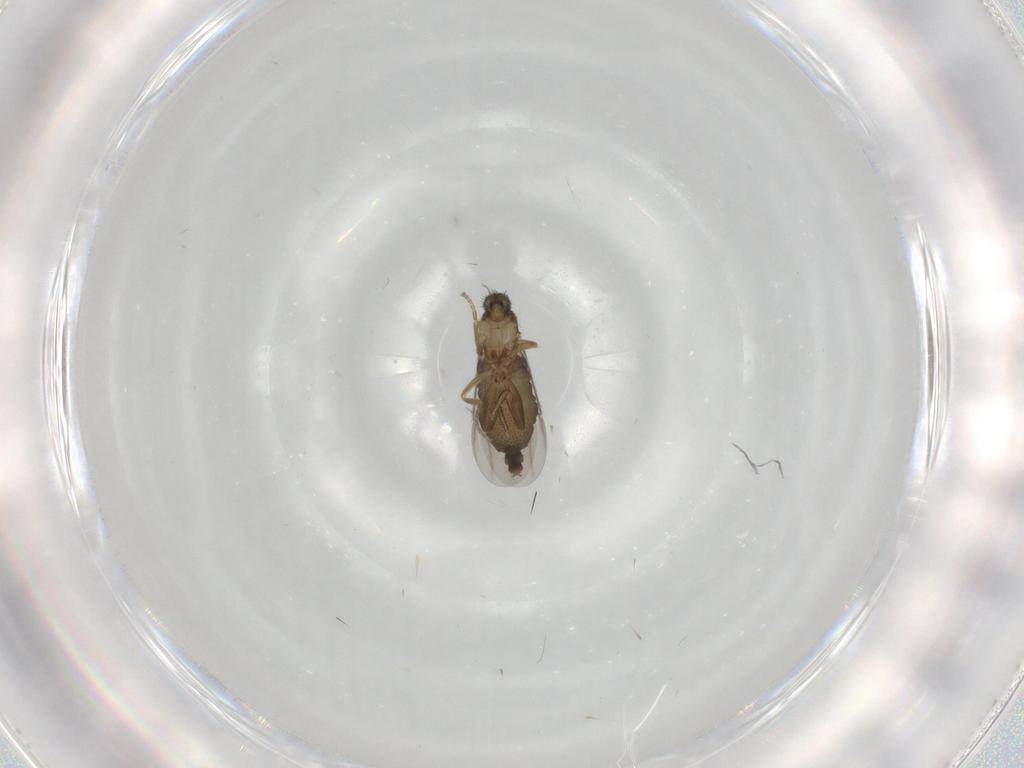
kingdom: Animalia
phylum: Arthropoda
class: Insecta
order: Diptera
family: Phoridae
